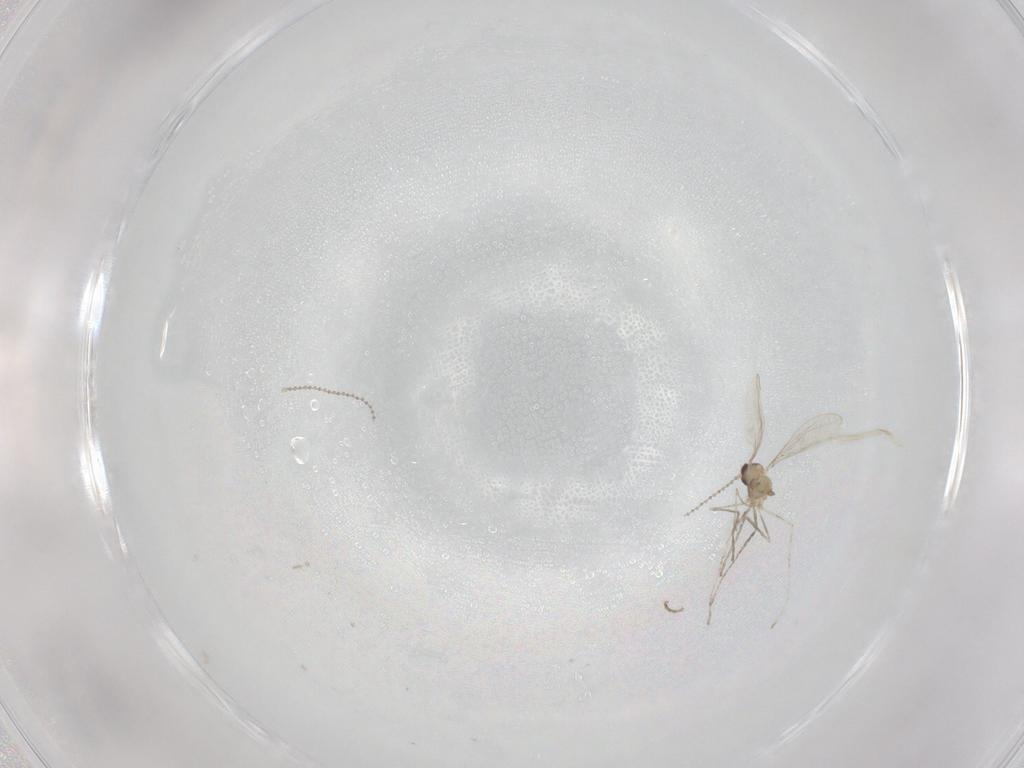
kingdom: Animalia
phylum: Arthropoda
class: Insecta
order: Diptera
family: Cecidomyiidae
